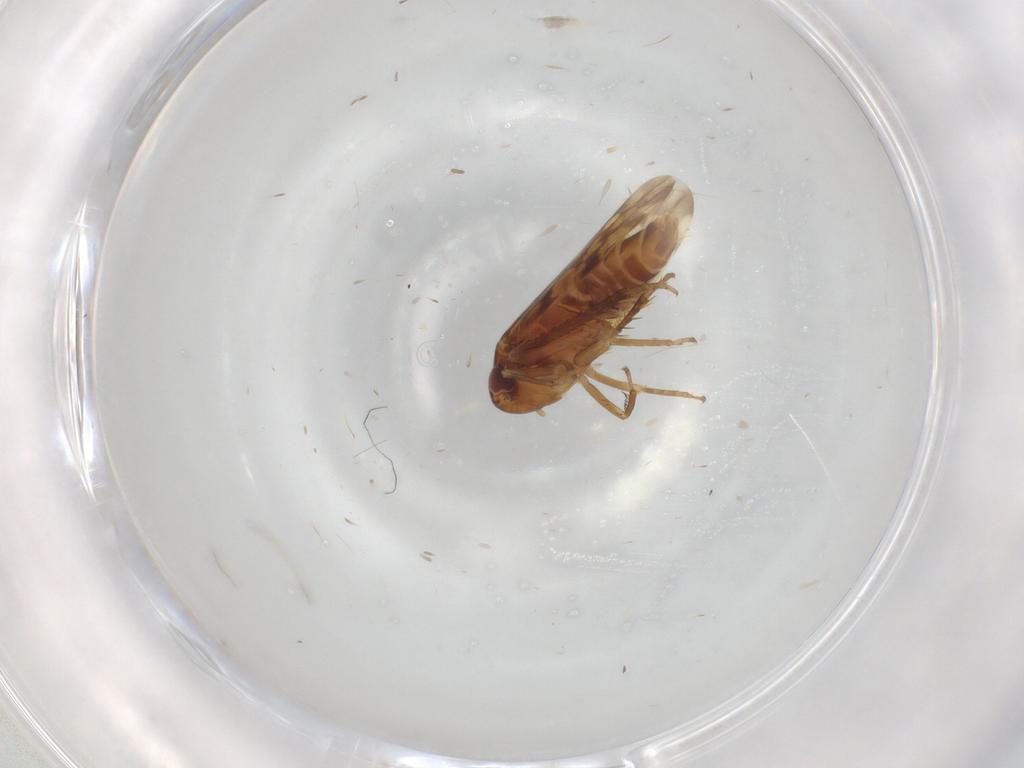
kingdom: Animalia
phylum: Arthropoda
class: Insecta
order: Hemiptera
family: Cicadellidae
